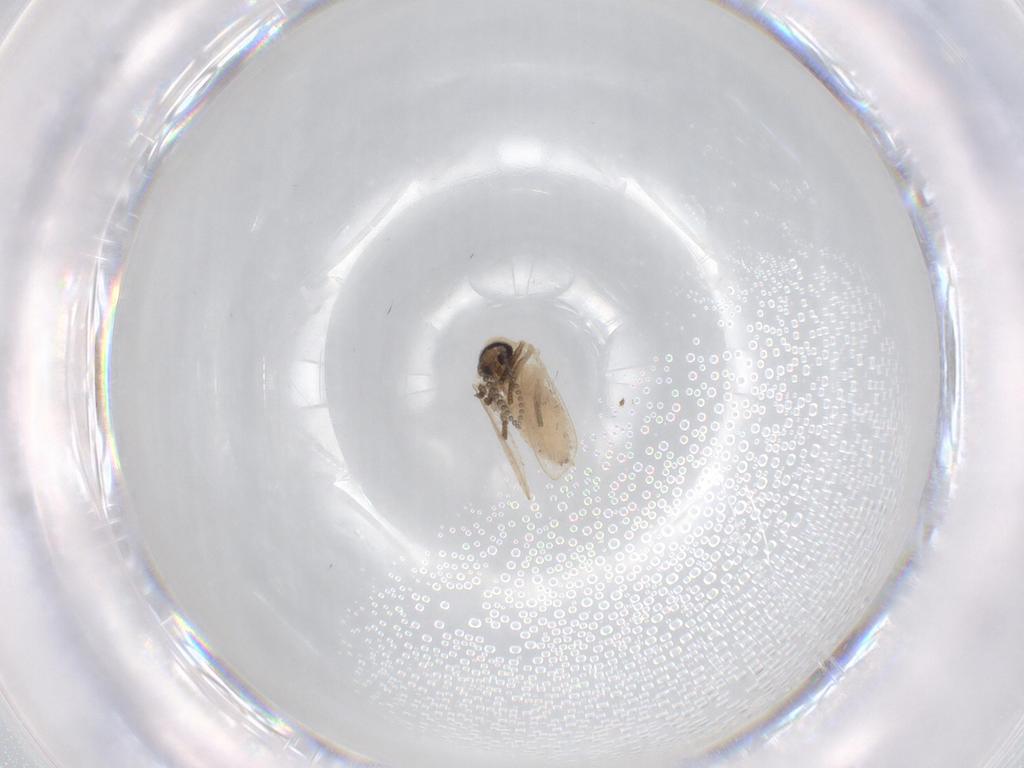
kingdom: Animalia
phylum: Arthropoda
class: Insecta
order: Diptera
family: Psychodidae
